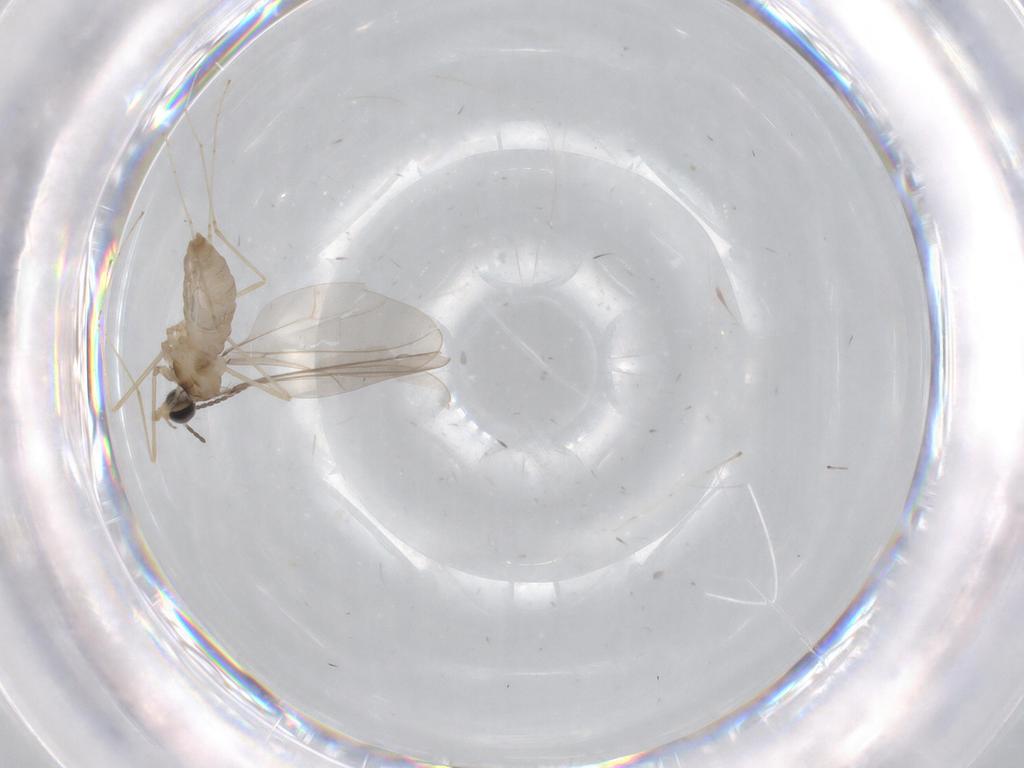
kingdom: Animalia
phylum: Arthropoda
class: Insecta
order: Diptera
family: Cecidomyiidae
